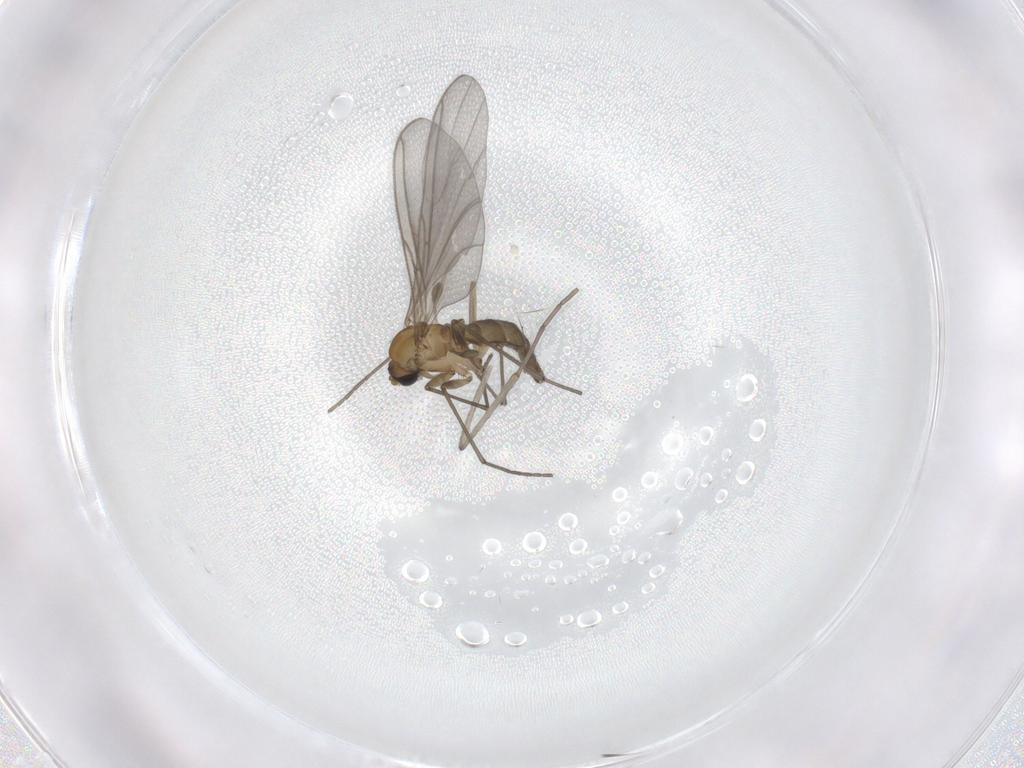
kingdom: Animalia
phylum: Arthropoda
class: Insecta
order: Diptera
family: Sciaridae
